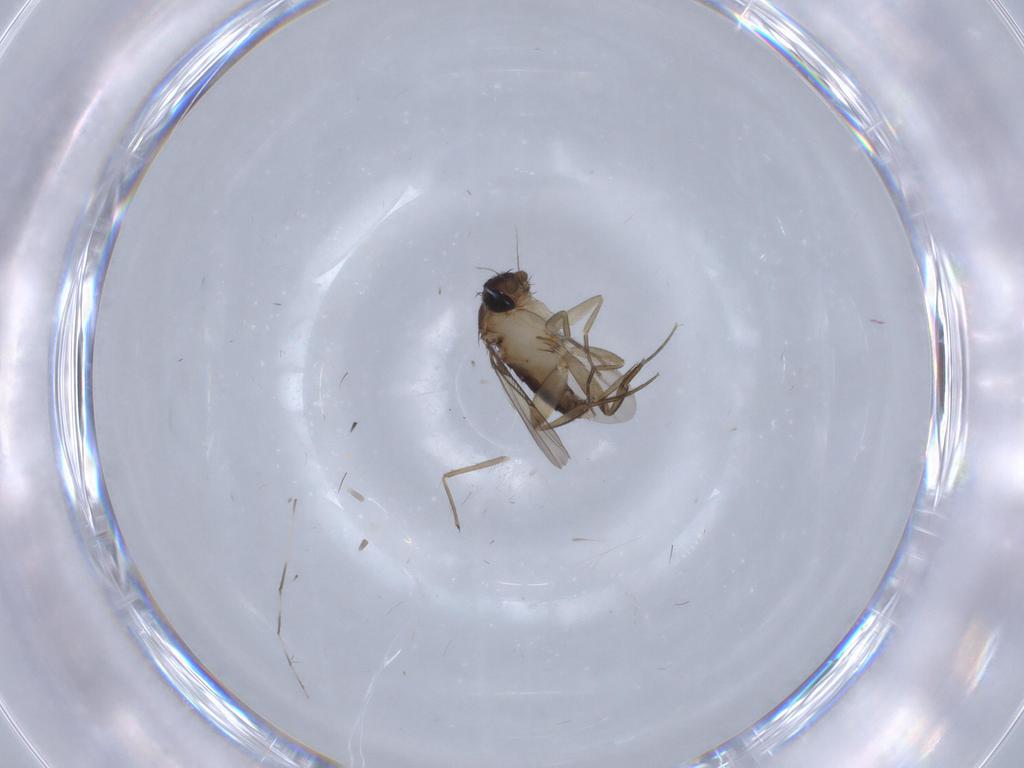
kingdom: Animalia
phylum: Arthropoda
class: Insecta
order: Diptera
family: Phoridae
